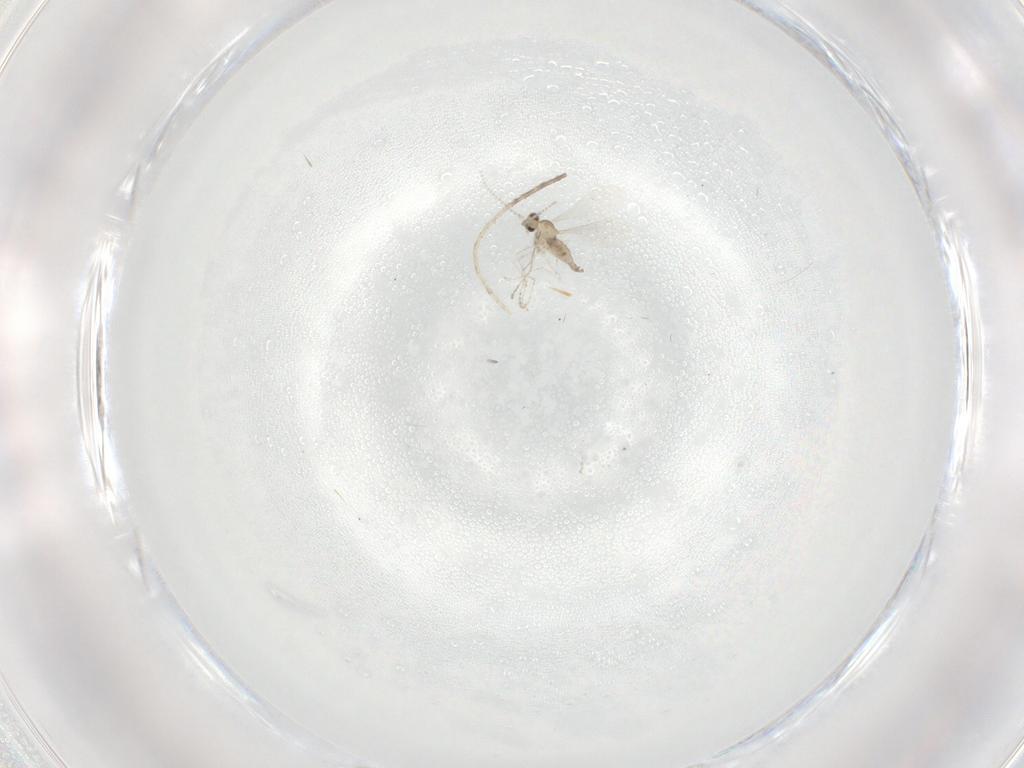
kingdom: Animalia
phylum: Arthropoda
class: Insecta
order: Diptera
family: Cecidomyiidae
